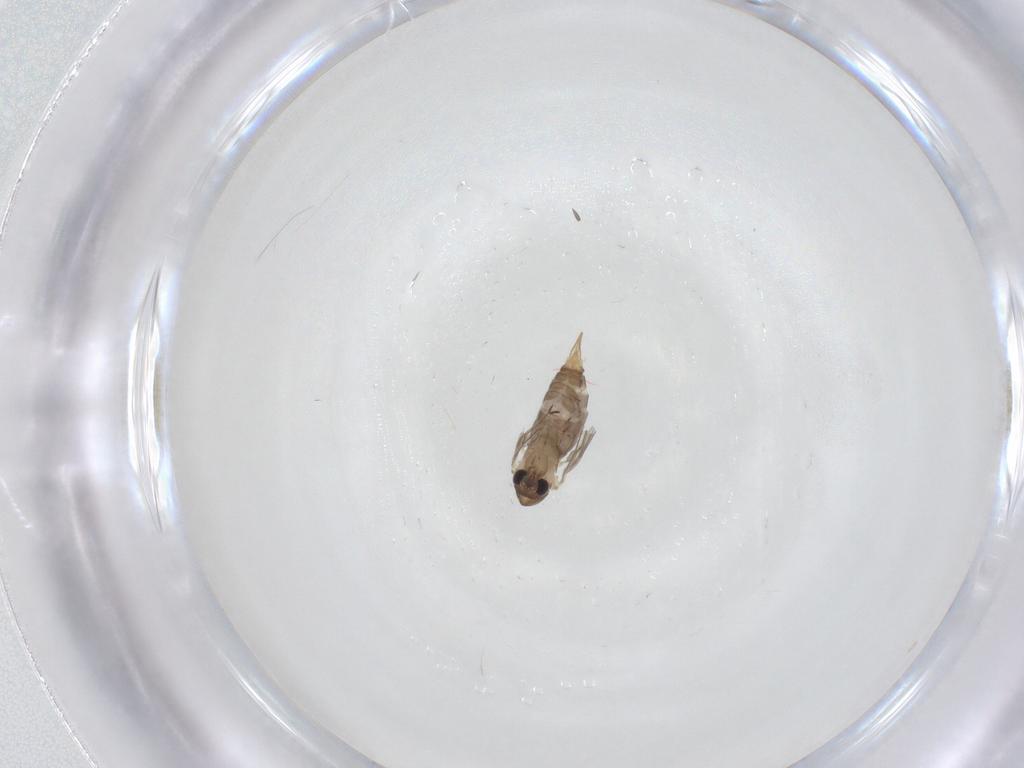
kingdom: Animalia
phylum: Arthropoda
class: Insecta
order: Diptera
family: Psychodidae
